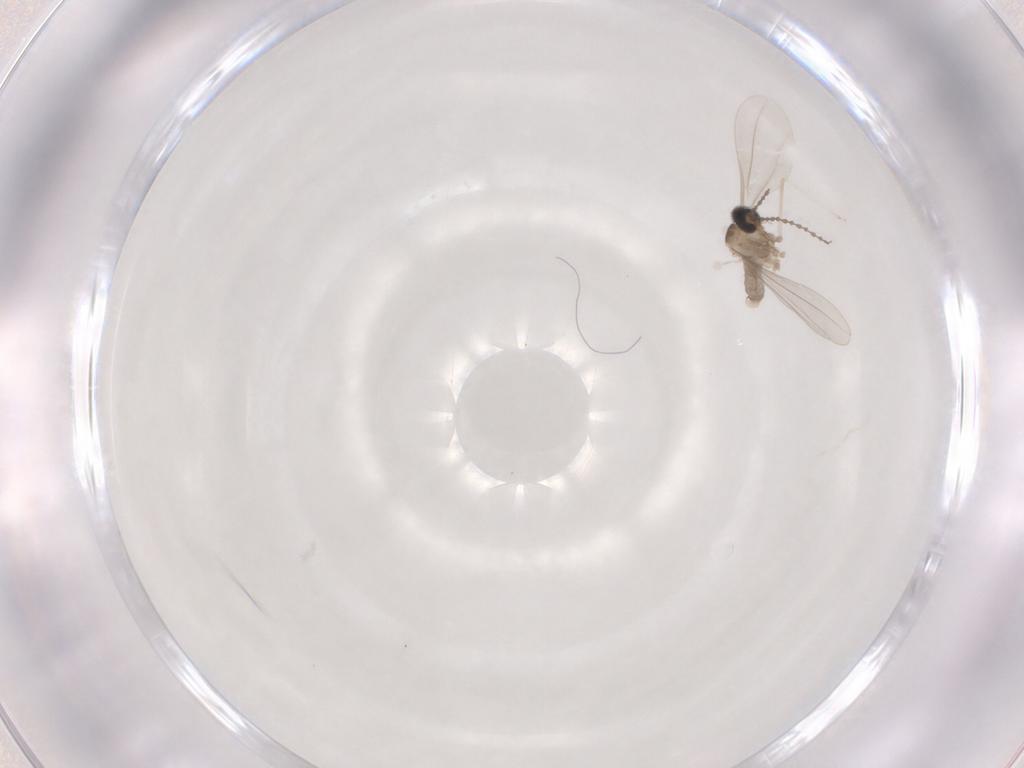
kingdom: Animalia
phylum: Arthropoda
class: Insecta
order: Diptera
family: Cecidomyiidae
